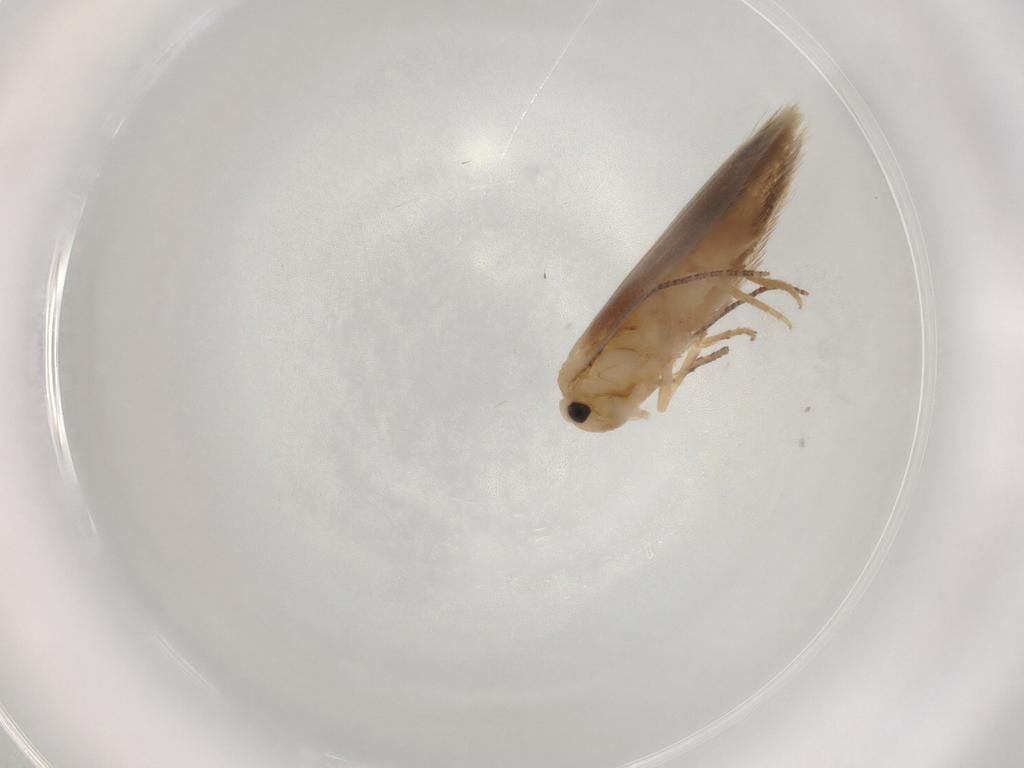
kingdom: Animalia
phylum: Arthropoda
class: Insecta
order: Lepidoptera
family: Bucculatricidae
